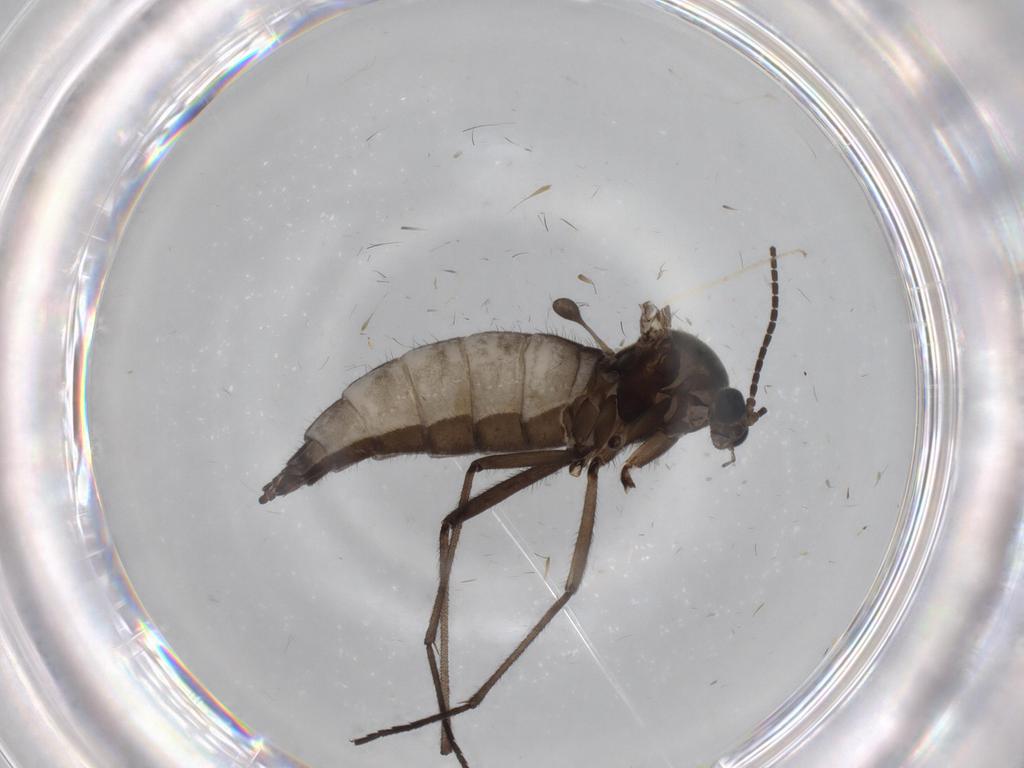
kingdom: Animalia
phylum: Arthropoda
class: Insecta
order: Diptera
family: Sciaridae
